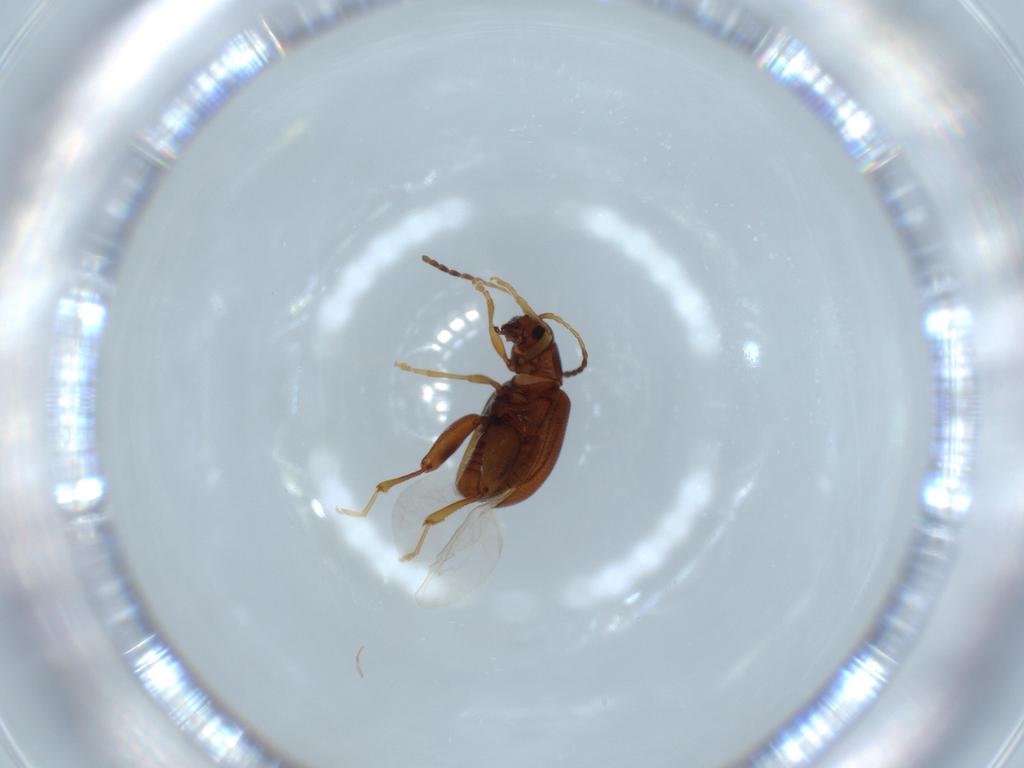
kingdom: Animalia
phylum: Arthropoda
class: Insecta
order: Coleoptera
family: Chrysomelidae
